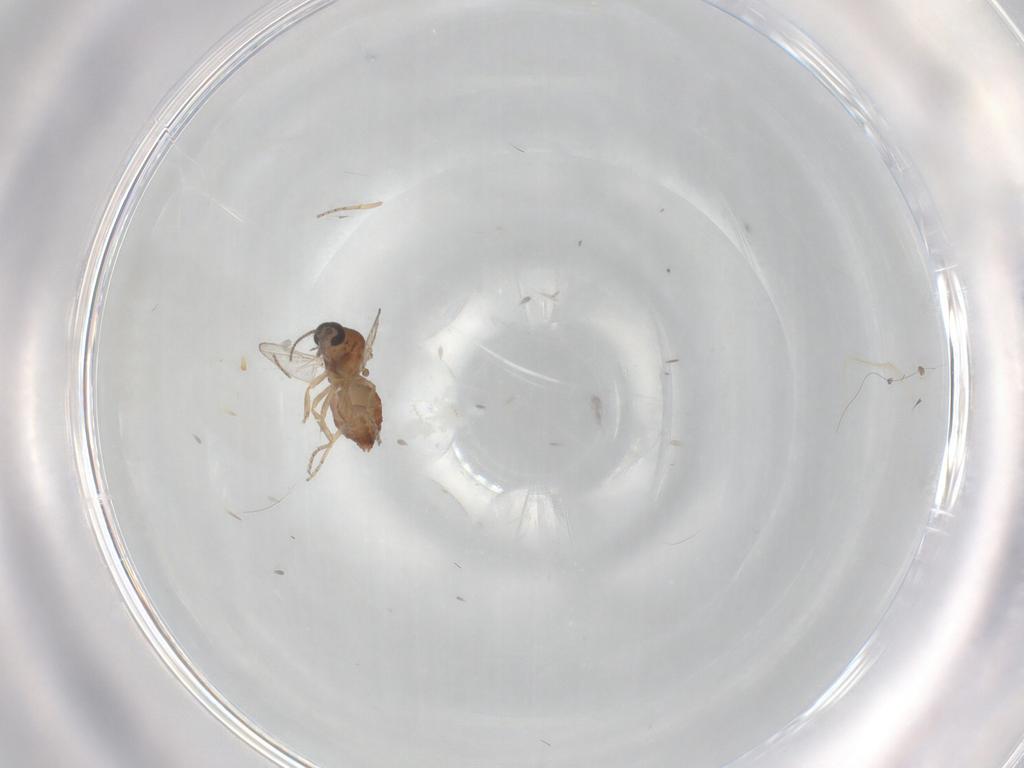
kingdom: Animalia
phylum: Arthropoda
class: Insecta
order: Diptera
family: Ceratopogonidae
